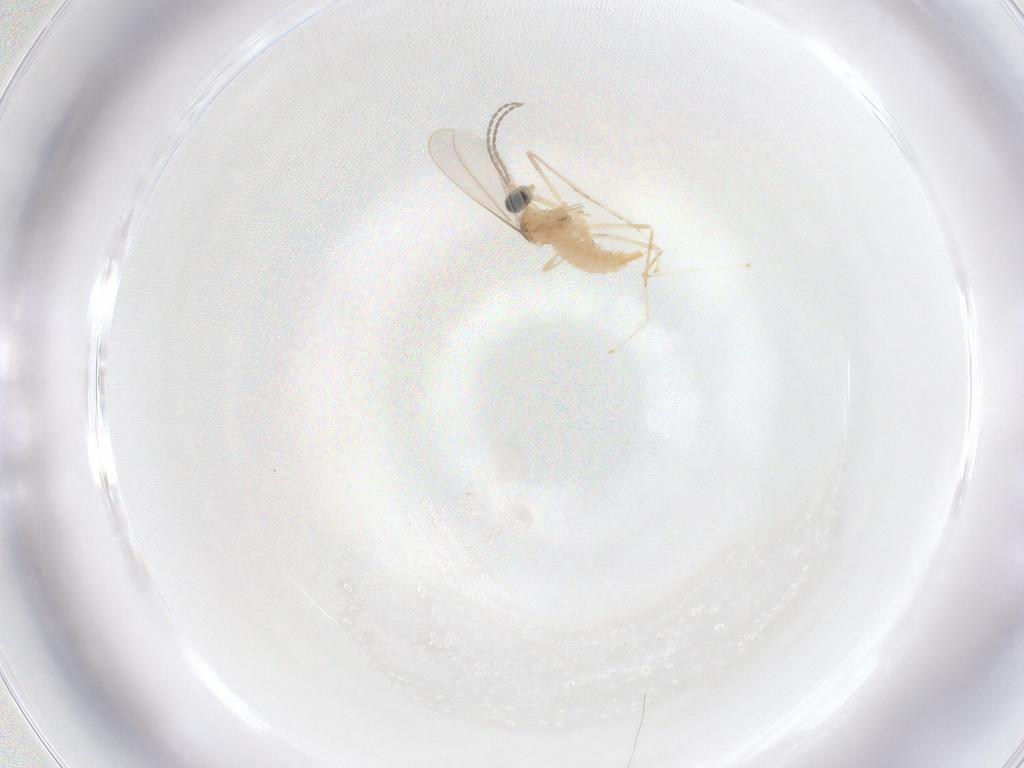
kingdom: Animalia
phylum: Arthropoda
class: Insecta
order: Diptera
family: Cecidomyiidae
